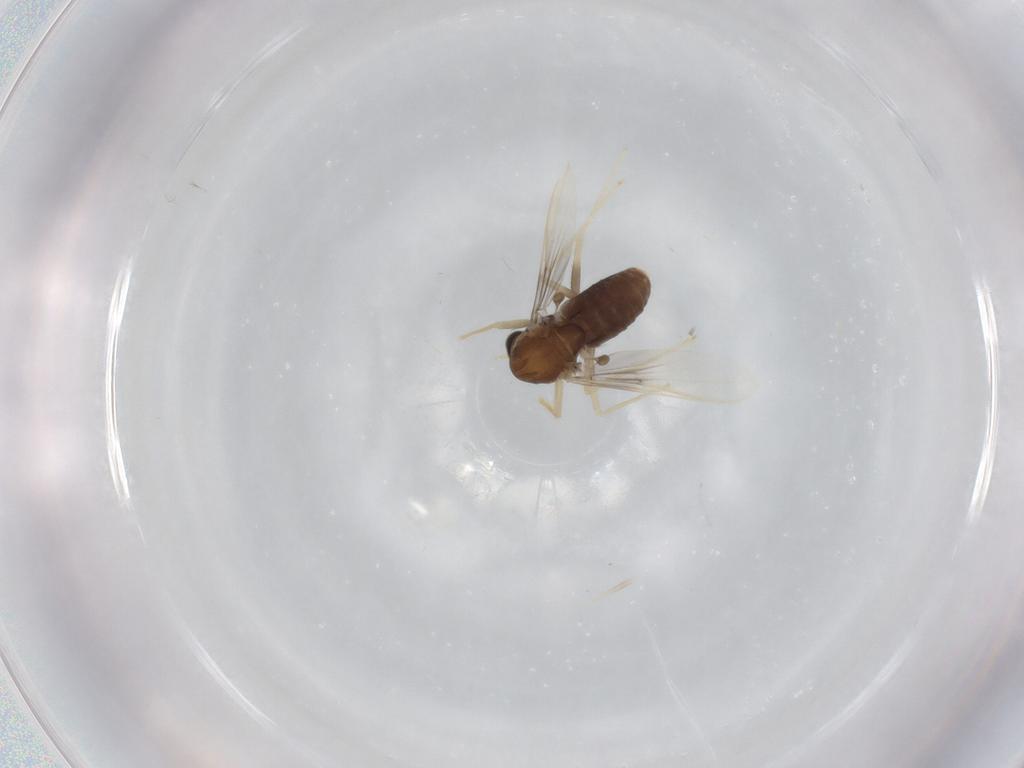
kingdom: Animalia
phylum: Arthropoda
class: Insecta
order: Diptera
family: Chironomidae
